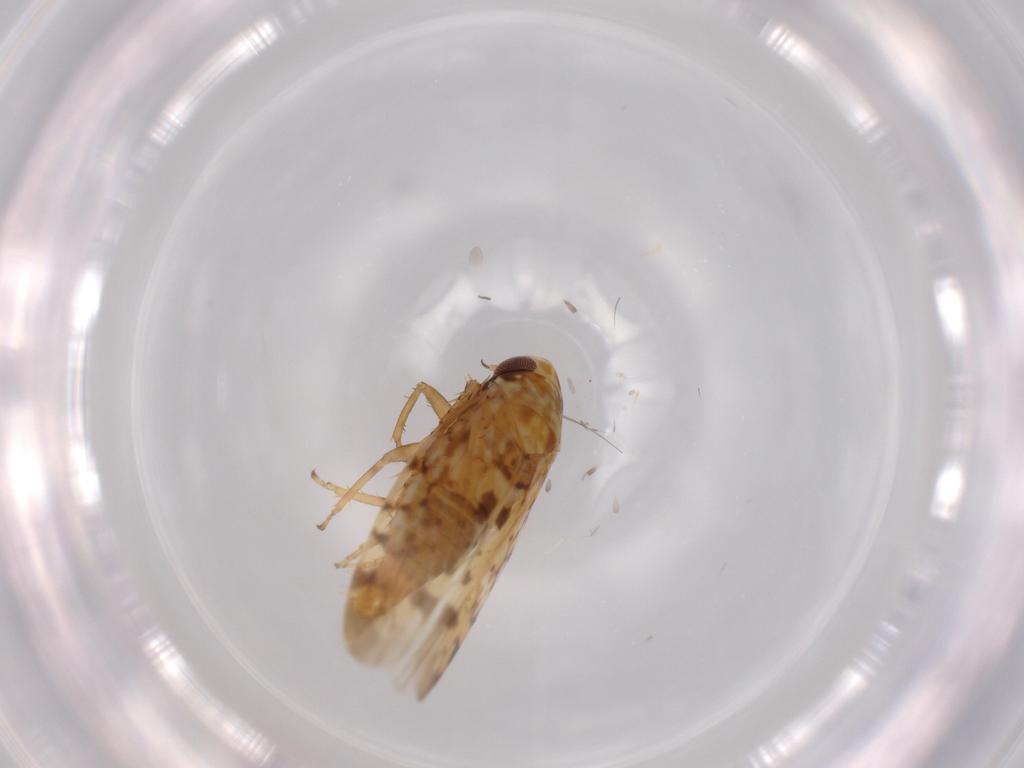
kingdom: Animalia
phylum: Arthropoda
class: Insecta
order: Hemiptera
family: Cicadellidae
